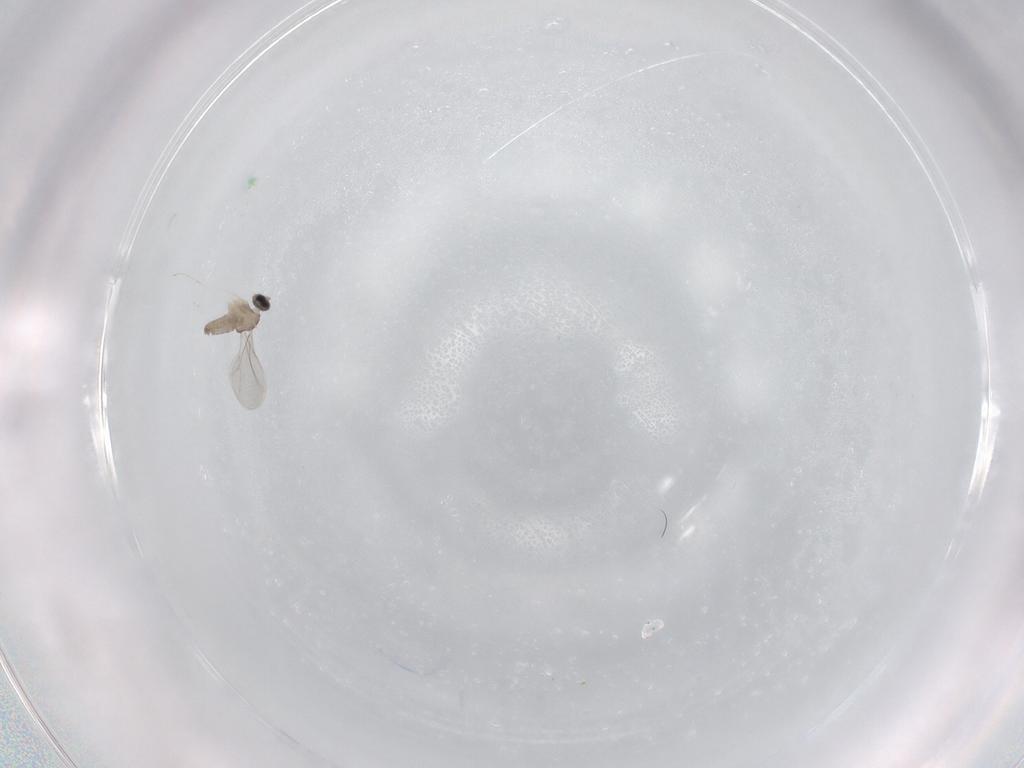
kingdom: Animalia
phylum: Arthropoda
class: Insecta
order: Diptera
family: Cecidomyiidae
